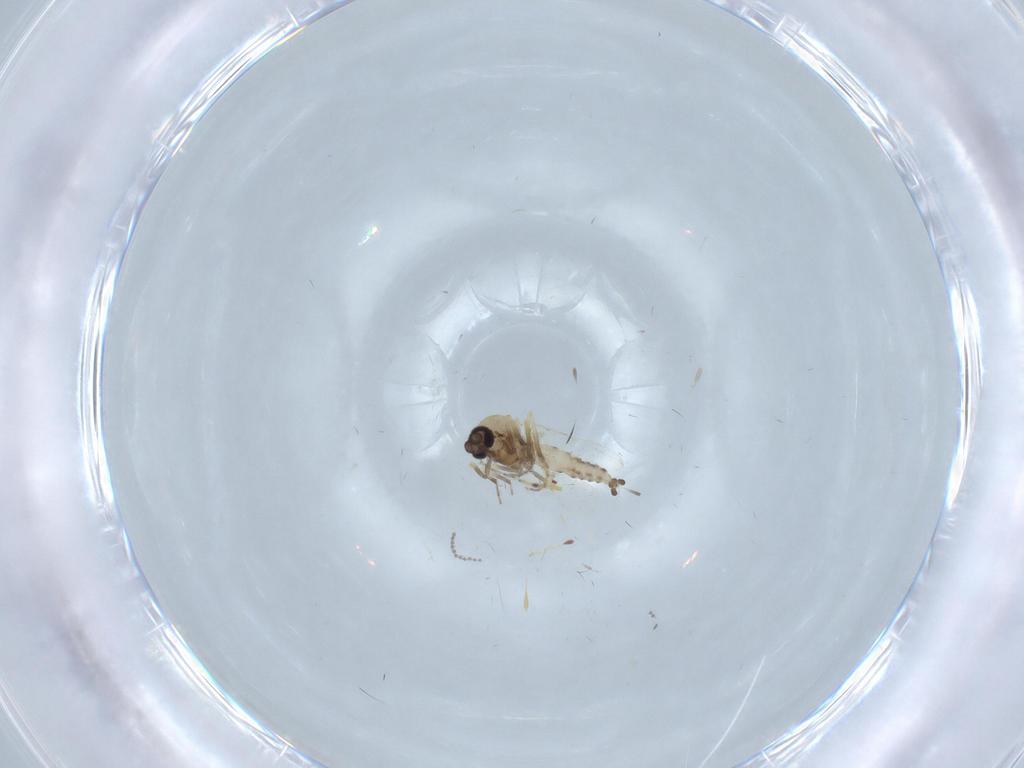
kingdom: Animalia
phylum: Arthropoda
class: Insecta
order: Diptera
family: Ceratopogonidae
